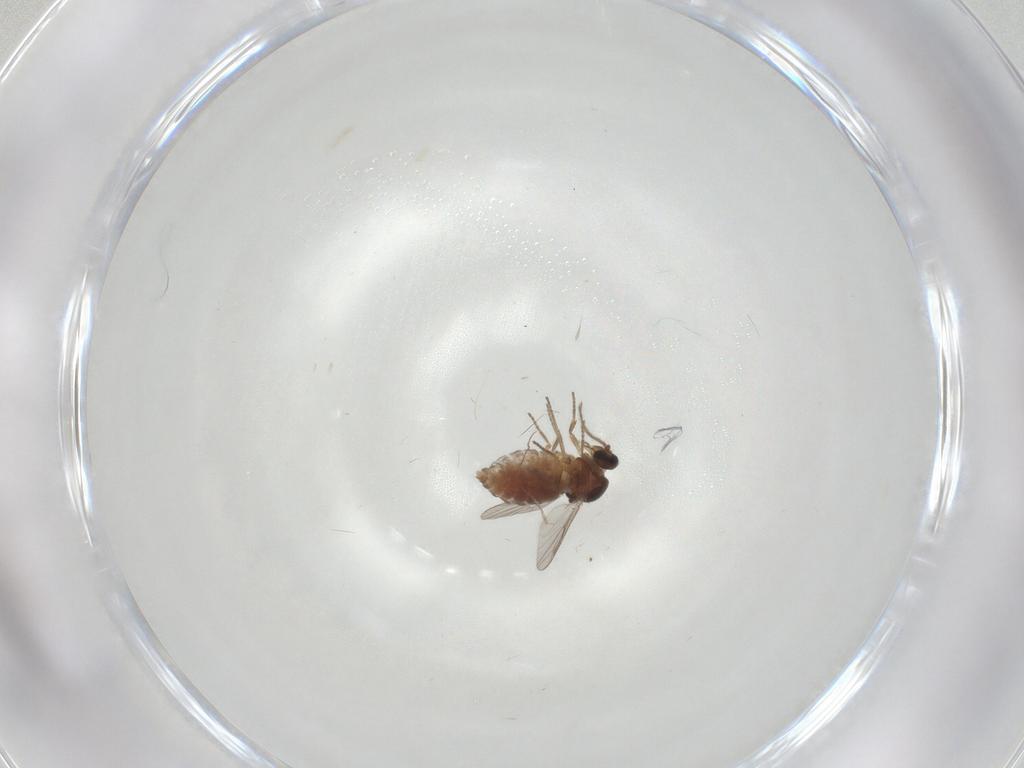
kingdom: Animalia
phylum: Arthropoda
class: Insecta
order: Diptera
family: Ceratopogonidae
